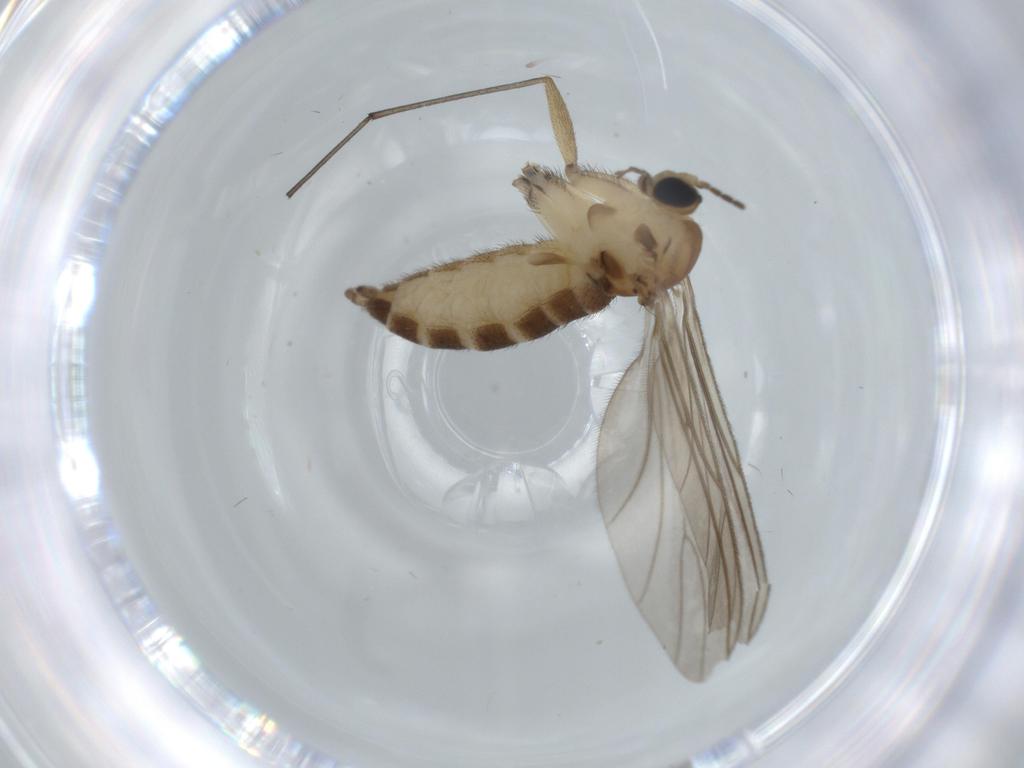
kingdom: Animalia
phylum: Arthropoda
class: Insecta
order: Diptera
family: Sciaridae
